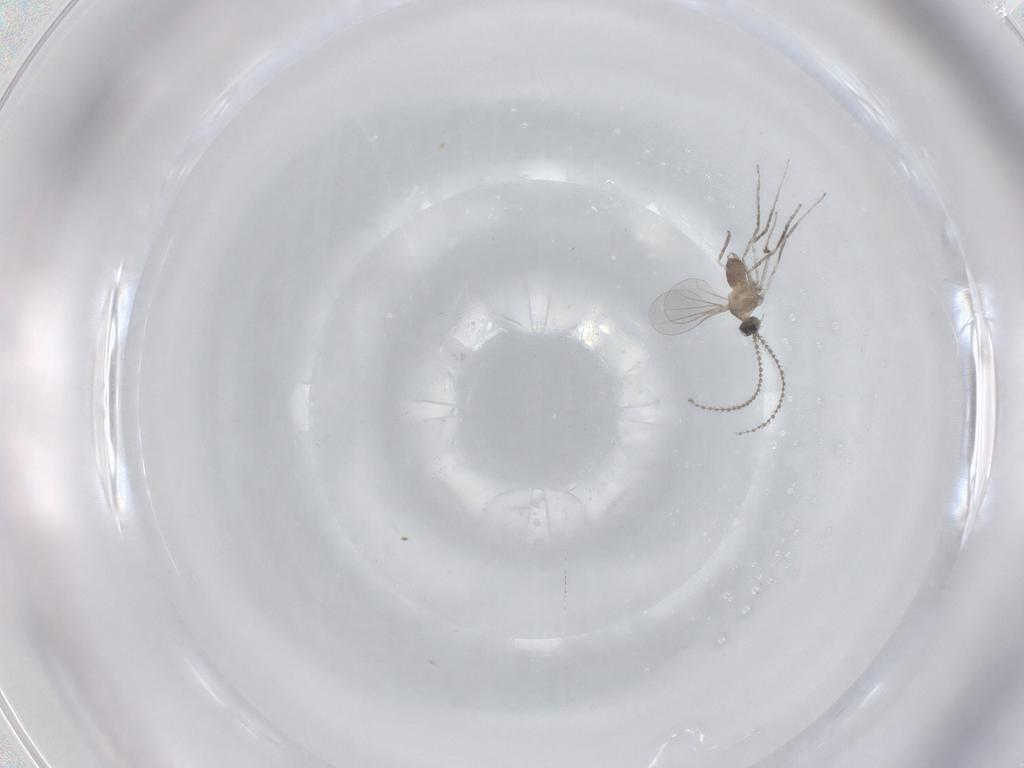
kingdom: Animalia
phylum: Arthropoda
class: Insecta
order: Diptera
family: Cecidomyiidae
